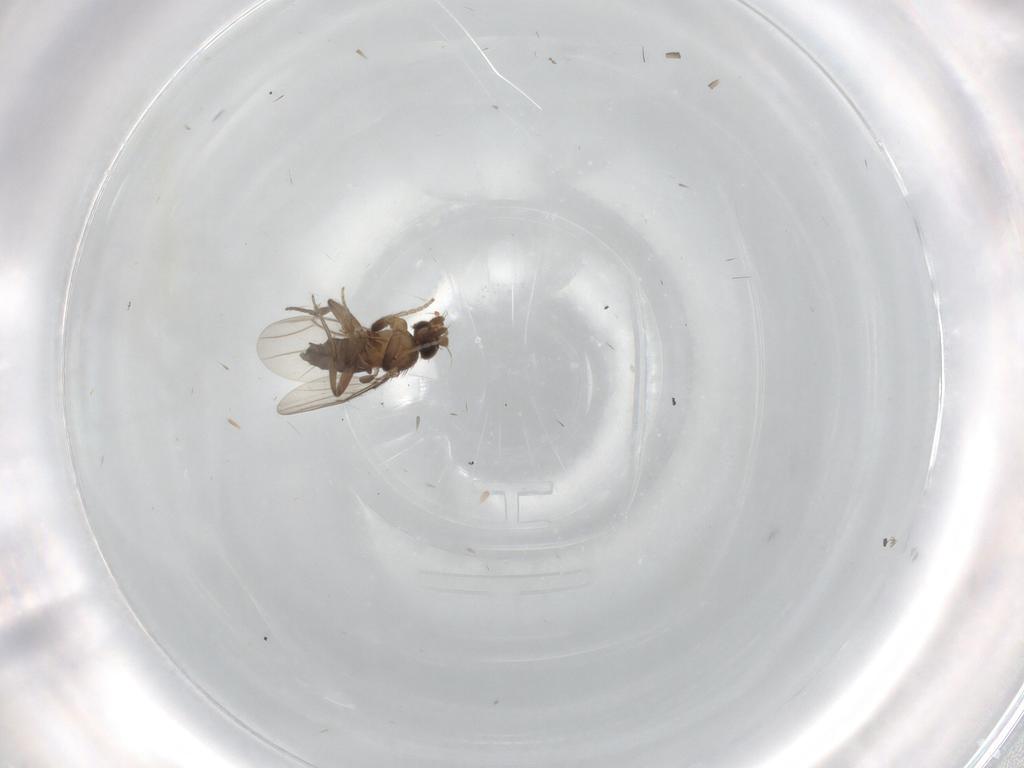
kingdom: Animalia
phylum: Arthropoda
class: Insecta
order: Diptera
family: Phoridae
